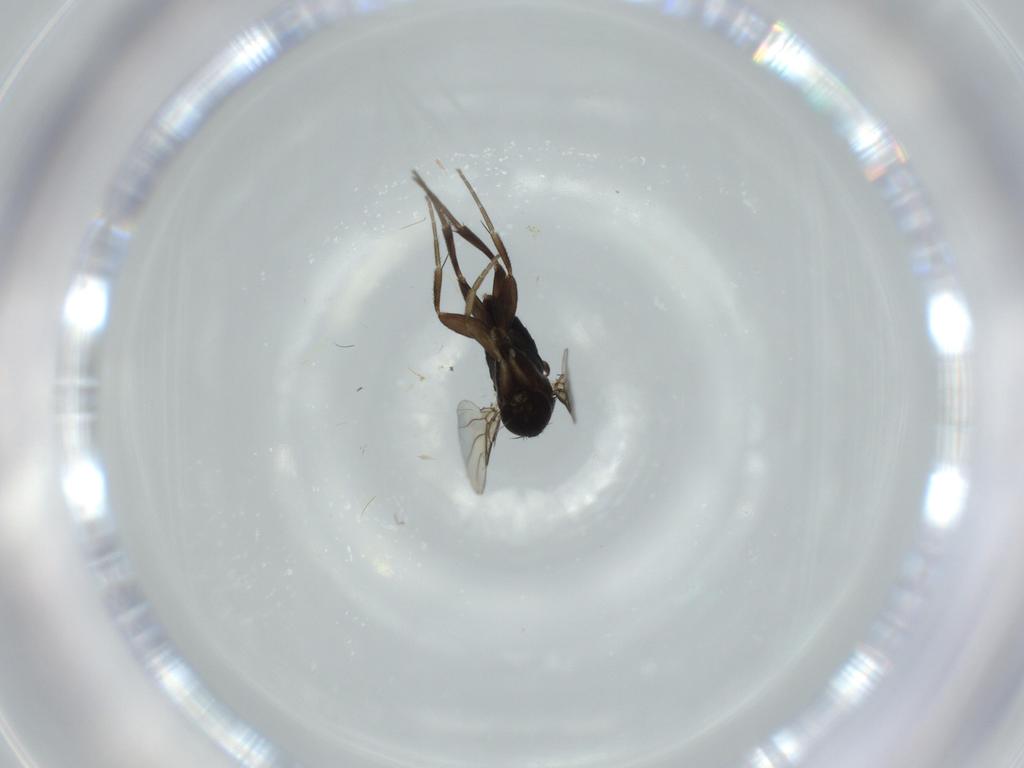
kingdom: Animalia
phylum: Arthropoda
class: Insecta
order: Diptera
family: Phoridae
